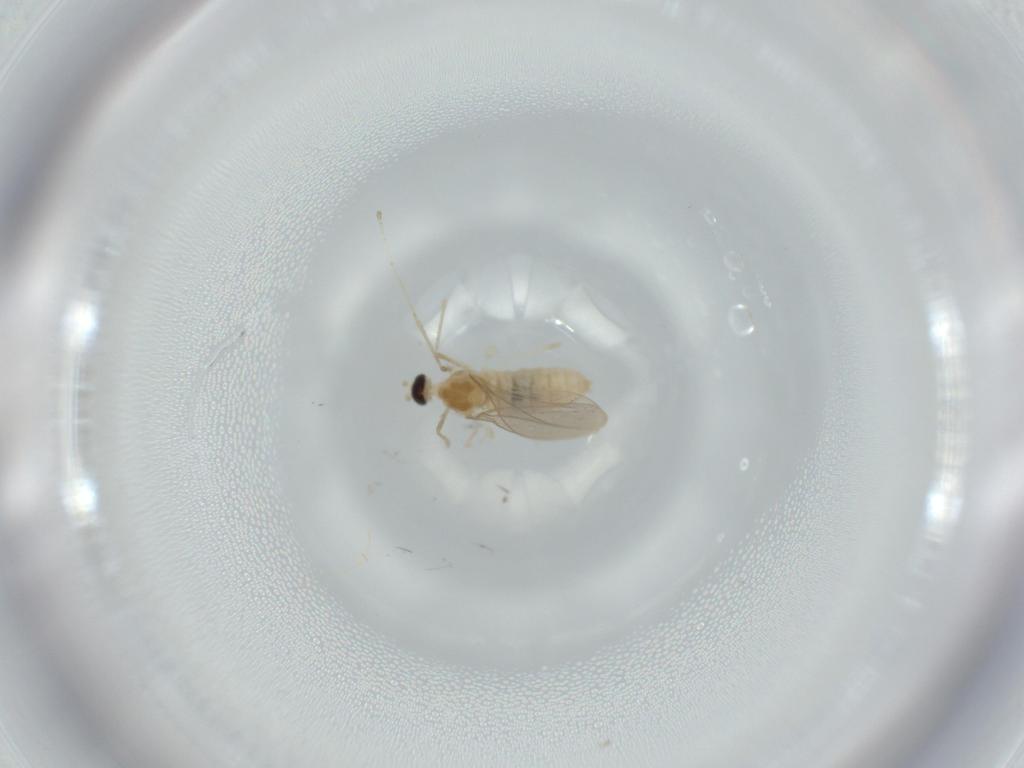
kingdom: Animalia
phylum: Arthropoda
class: Insecta
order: Diptera
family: Cecidomyiidae
